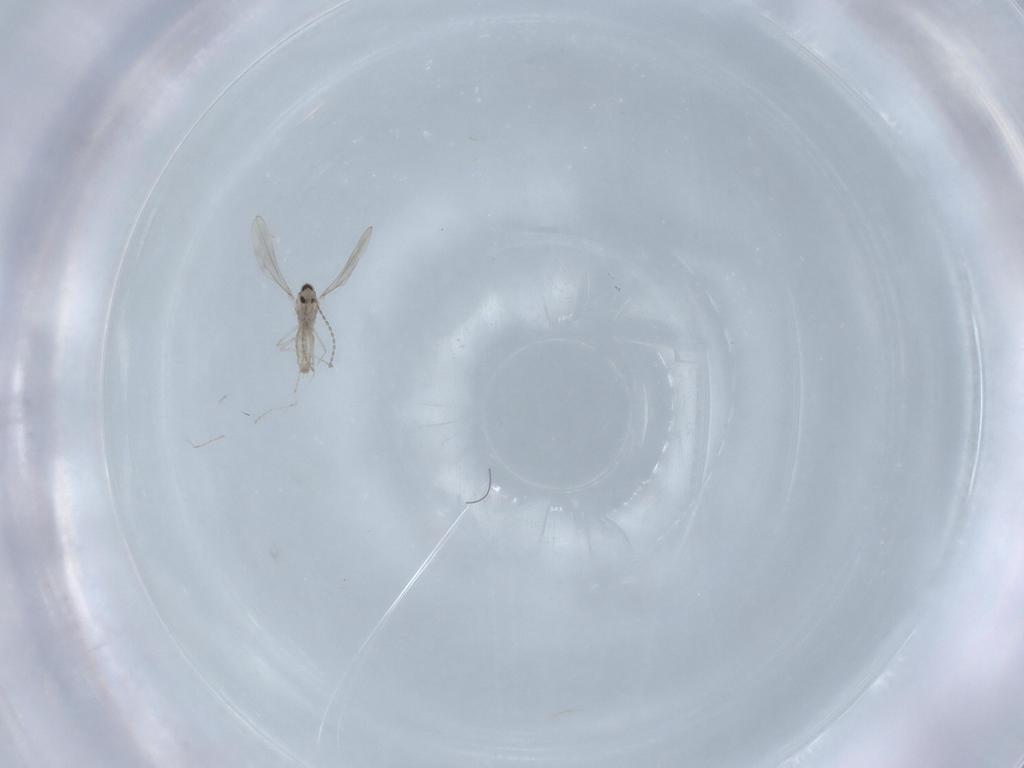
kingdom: Animalia
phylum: Arthropoda
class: Insecta
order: Diptera
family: Cecidomyiidae
